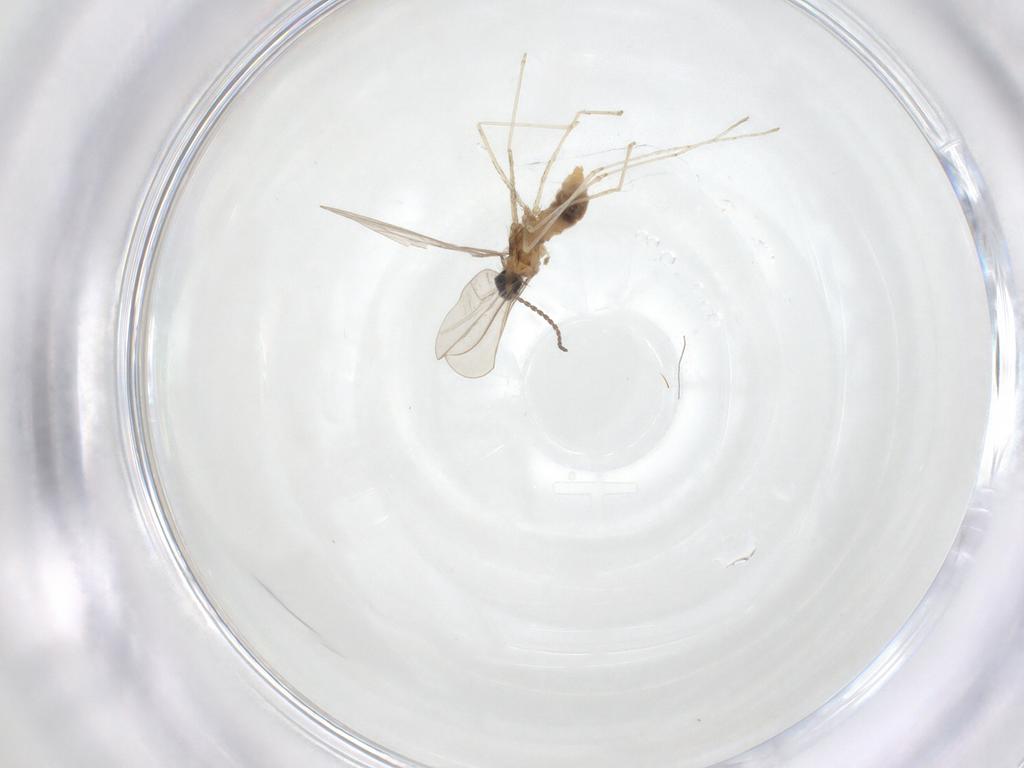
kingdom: Animalia
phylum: Arthropoda
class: Insecta
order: Diptera
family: Cecidomyiidae
